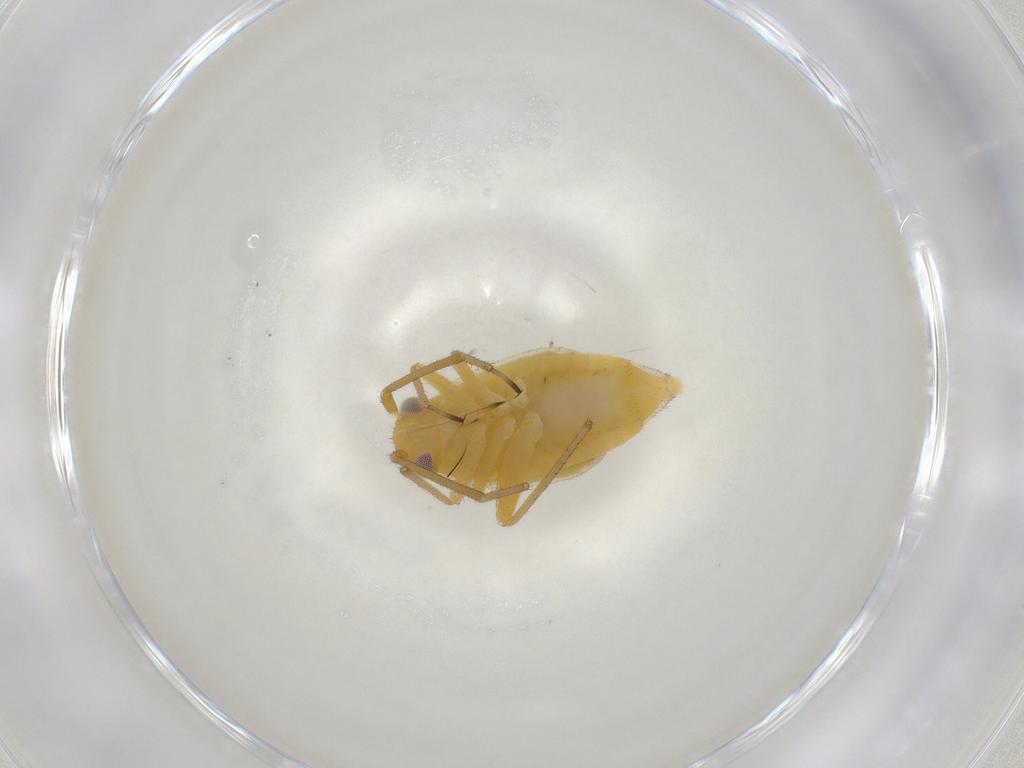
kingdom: Animalia
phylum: Arthropoda
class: Insecta
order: Hemiptera
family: Miridae
